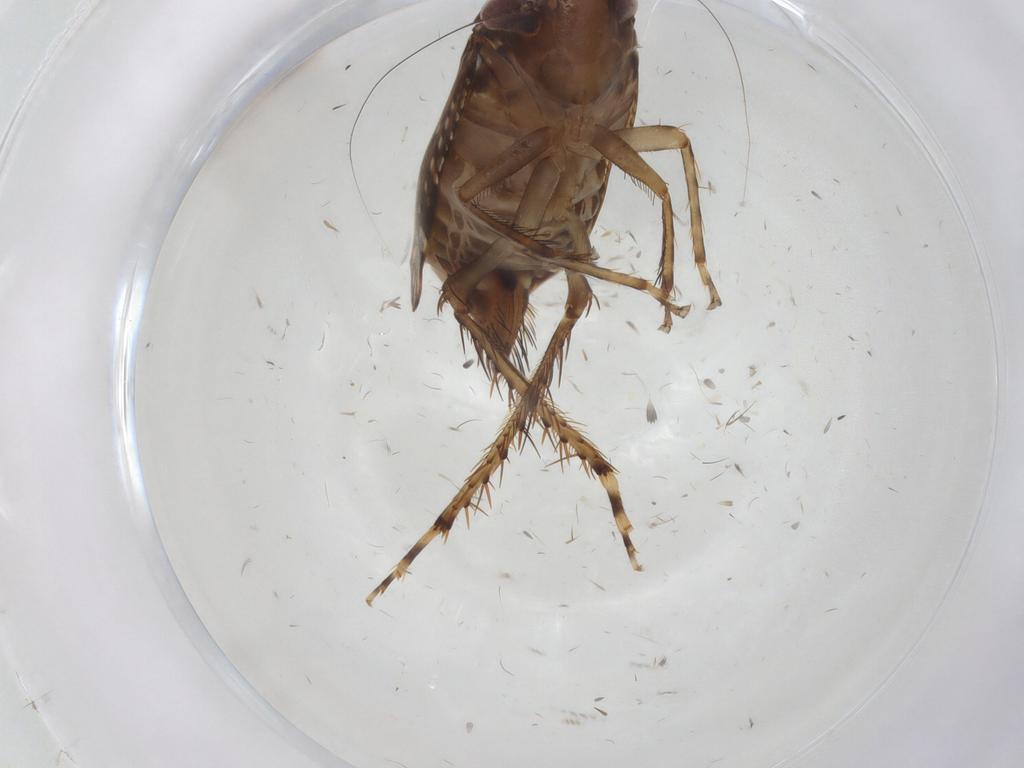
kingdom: Animalia
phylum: Arthropoda
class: Insecta
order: Hemiptera
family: Cicadellidae
